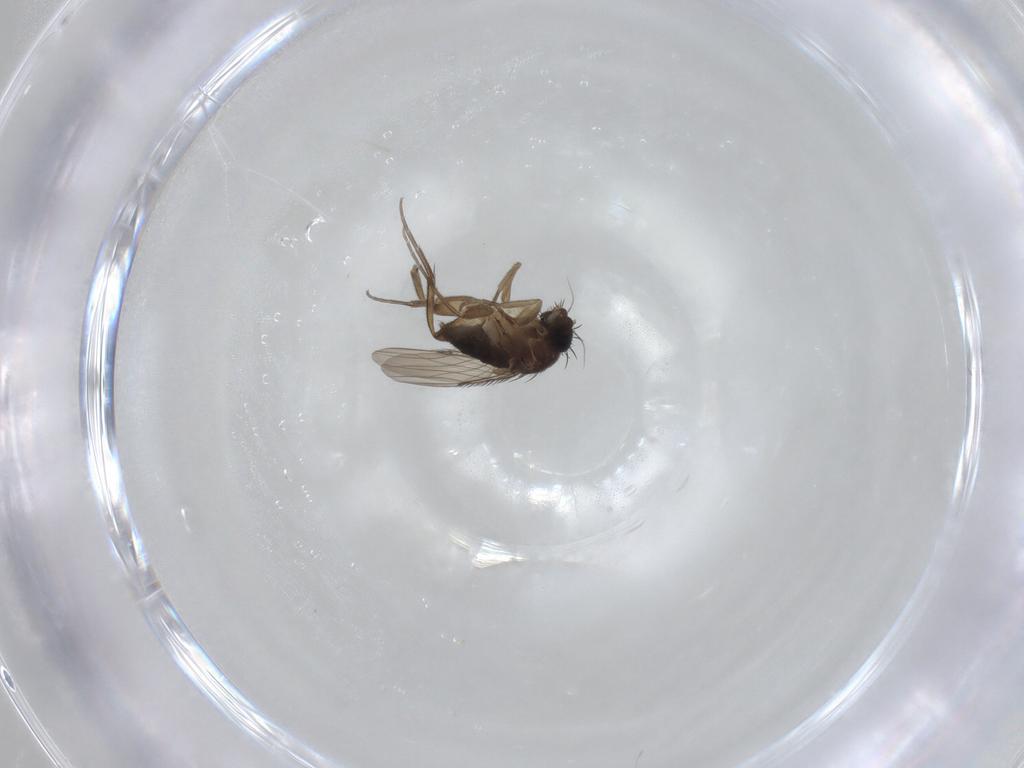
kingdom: Animalia
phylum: Arthropoda
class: Insecta
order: Diptera
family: Phoridae
